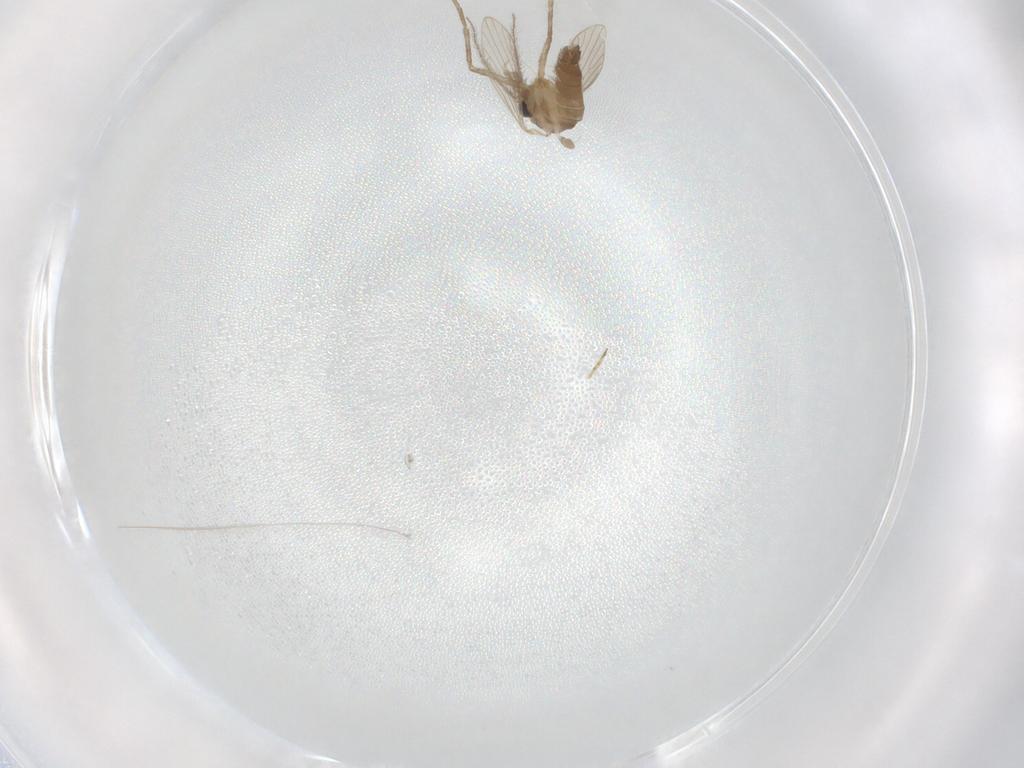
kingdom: Animalia
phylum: Arthropoda
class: Insecta
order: Diptera
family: Psychodidae
